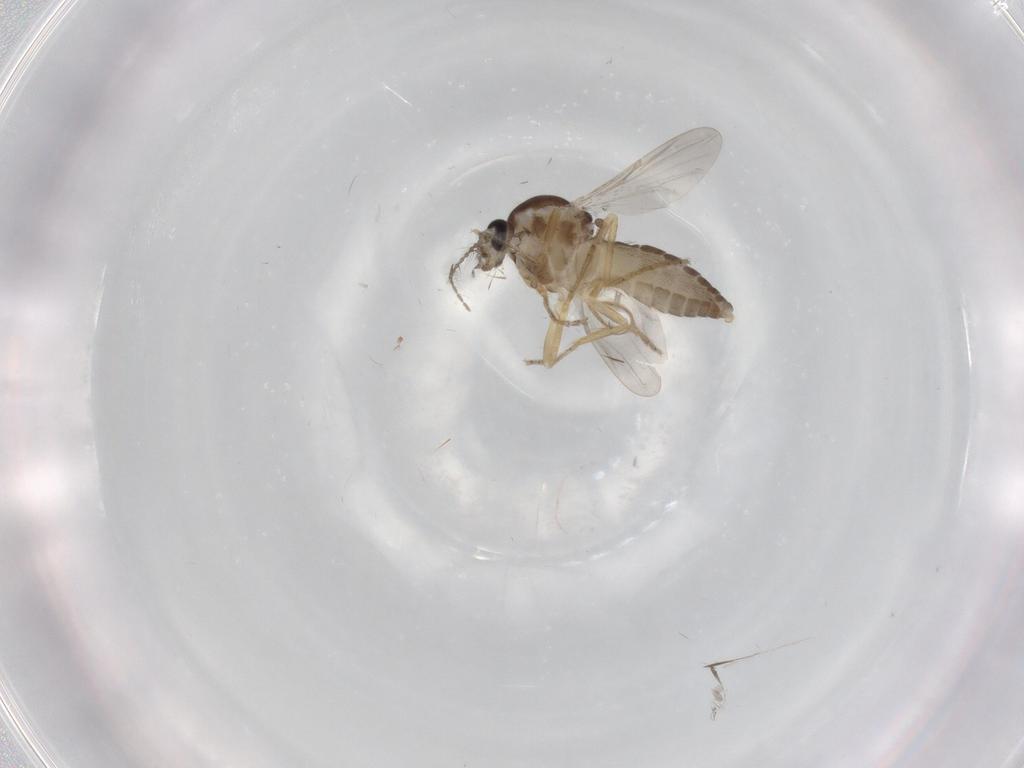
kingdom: Animalia
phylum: Arthropoda
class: Insecta
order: Diptera
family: Ceratopogonidae
